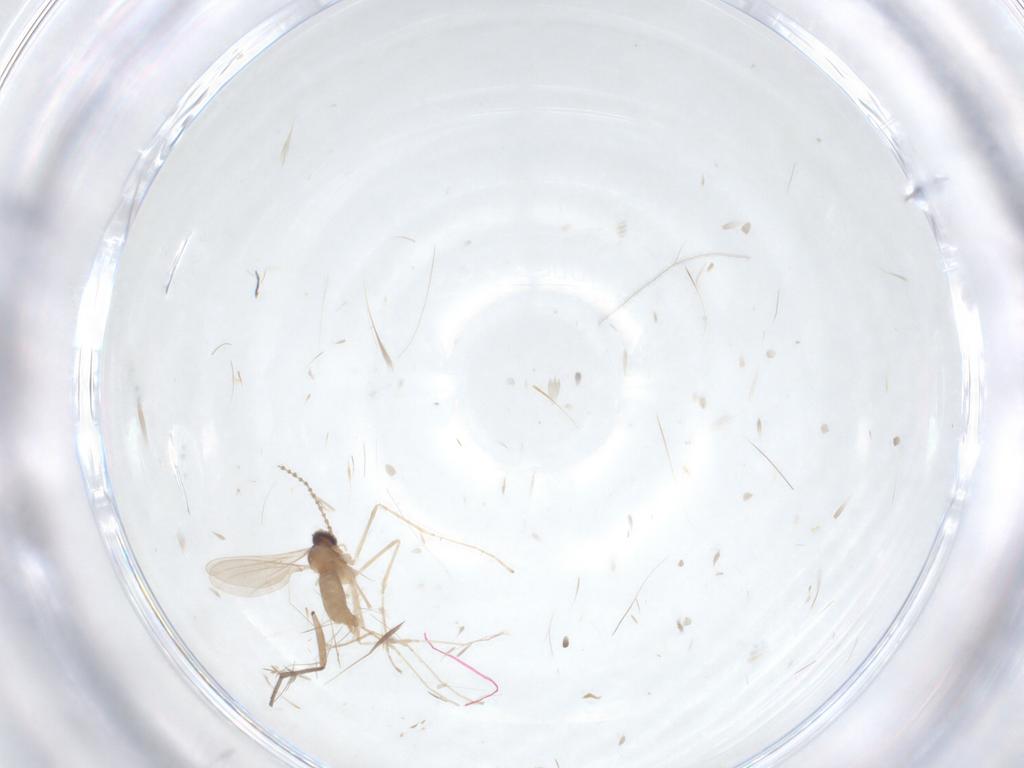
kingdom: Animalia
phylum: Arthropoda
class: Insecta
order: Diptera
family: Cecidomyiidae
